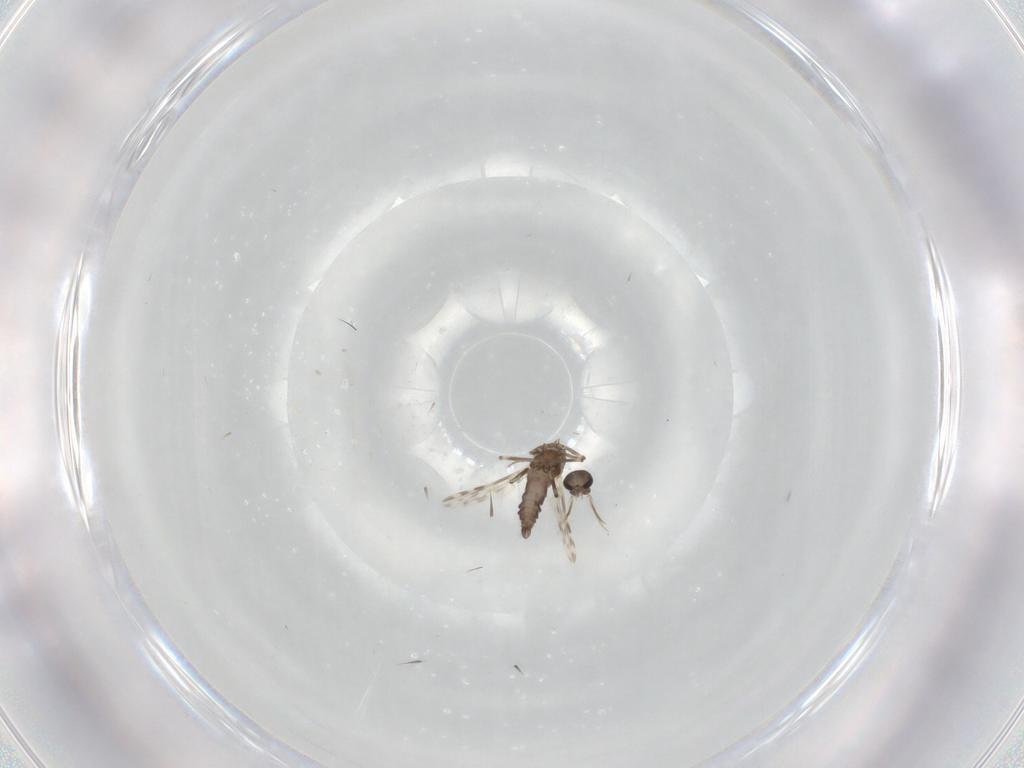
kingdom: Animalia
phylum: Arthropoda
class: Insecta
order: Diptera
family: Ceratopogonidae
